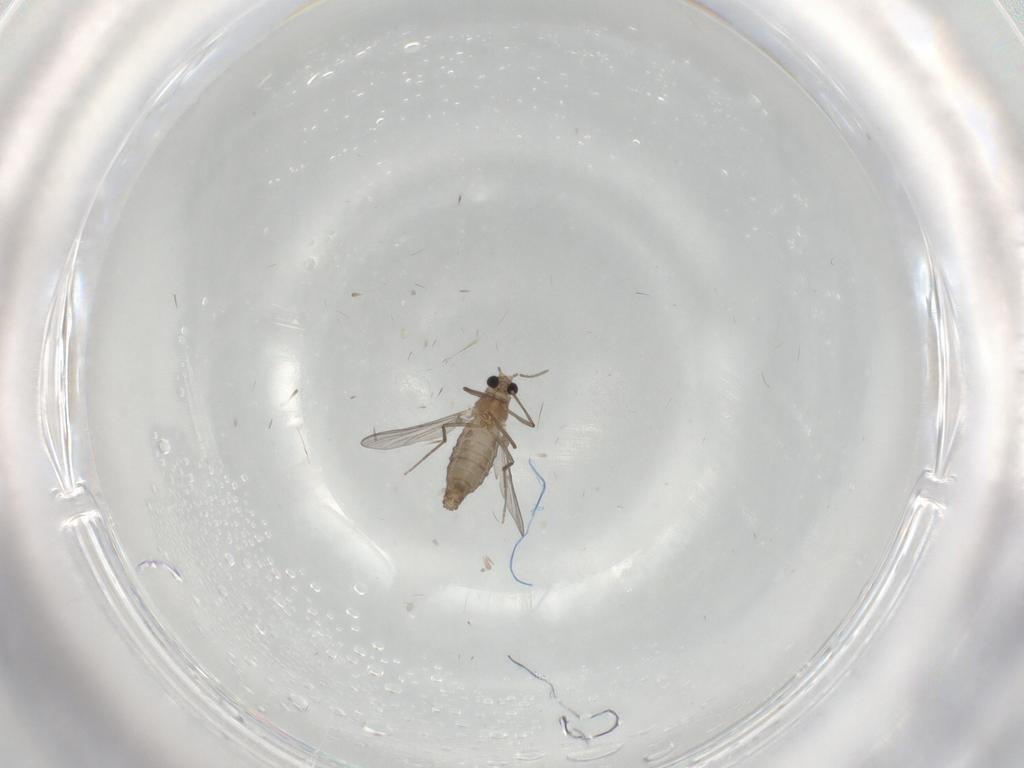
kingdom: Animalia
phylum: Arthropoda
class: Insecta
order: Diptera
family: Chironomidae
